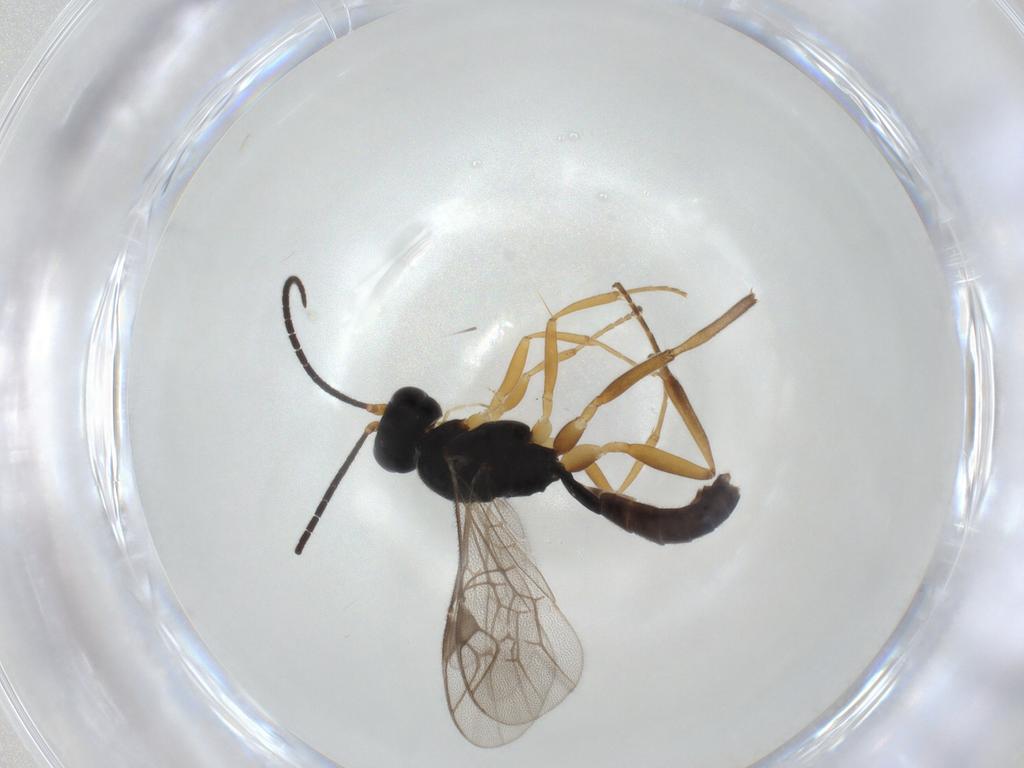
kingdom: Animalia
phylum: Arthropoda
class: Insecta
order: Hymenoptera
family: Ichneumonidae
